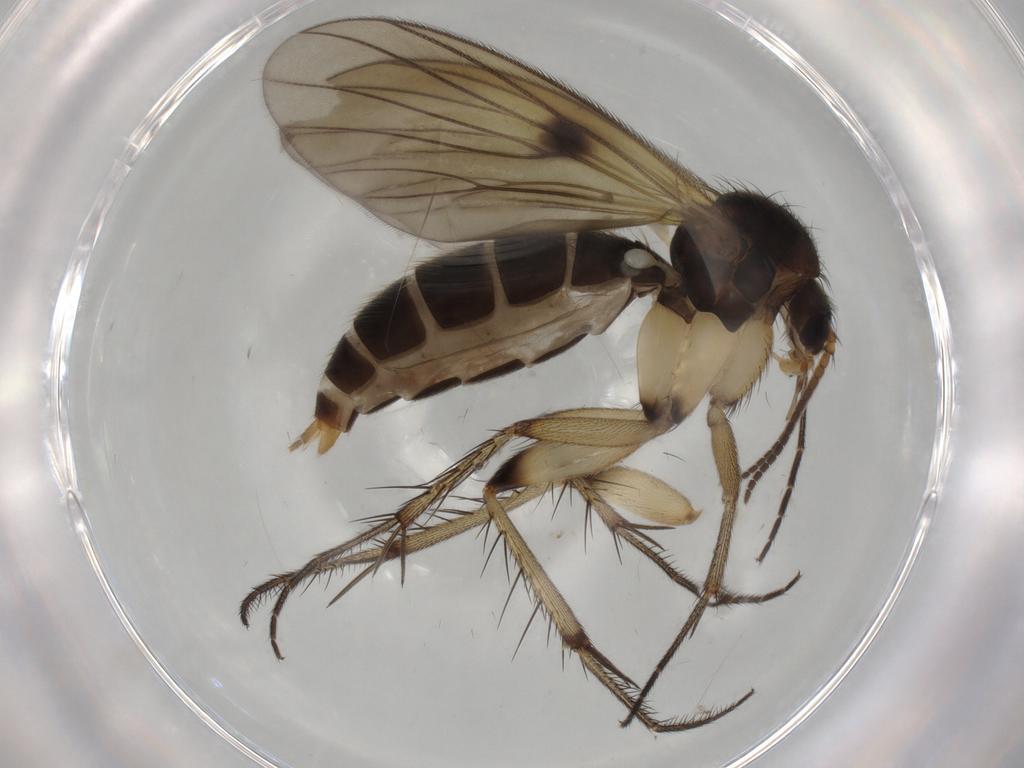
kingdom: Animalia
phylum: Arthropoda
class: Insecta
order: Diptera
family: Mycetophilidae
